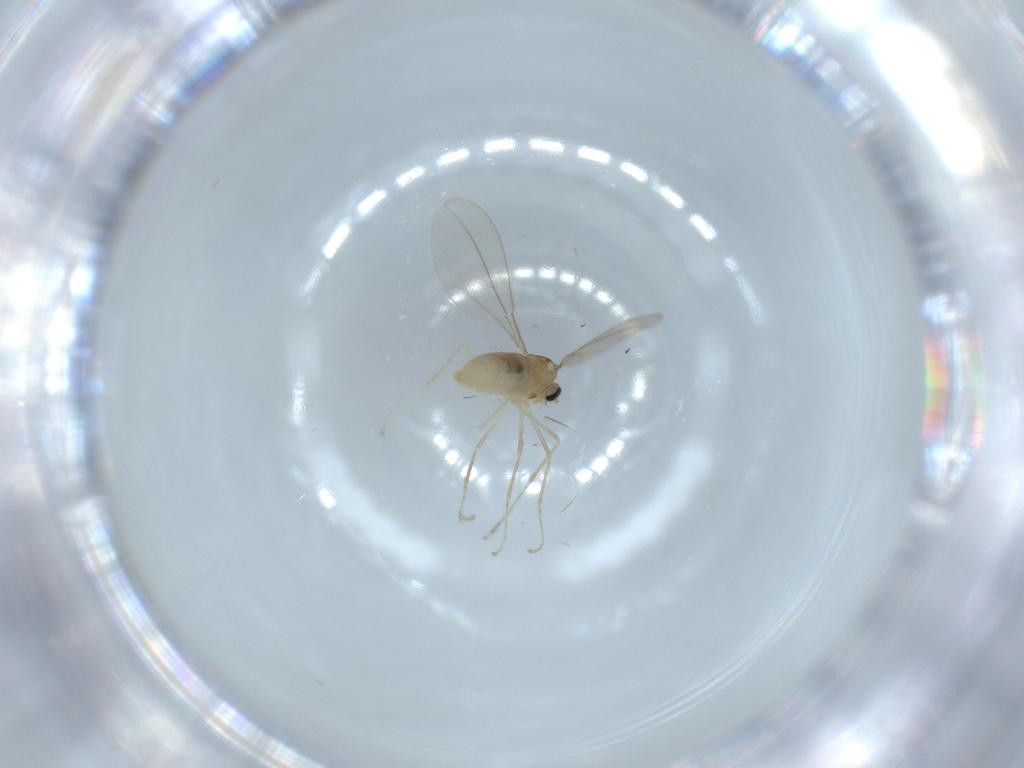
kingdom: Animalia
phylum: Arthropoda
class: Insecta
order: Diptera
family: Cecidomyiidae
